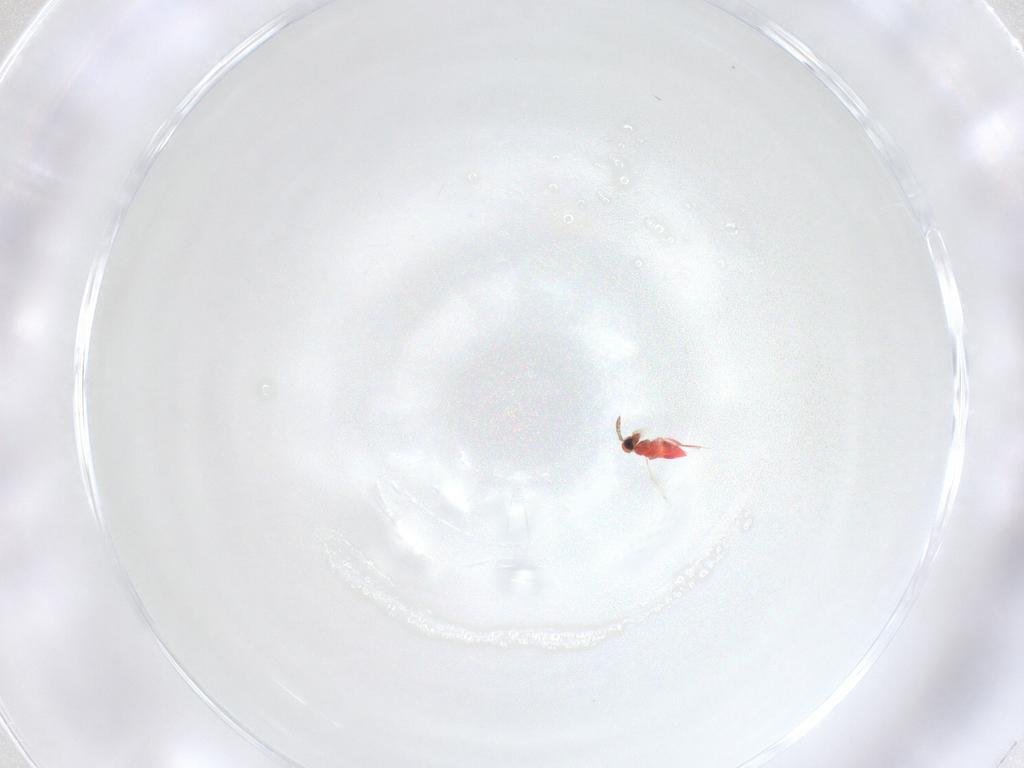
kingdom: Animalia
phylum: Arthropoda
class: Insecta
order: Hymenoptera
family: Trichogrammatidae
